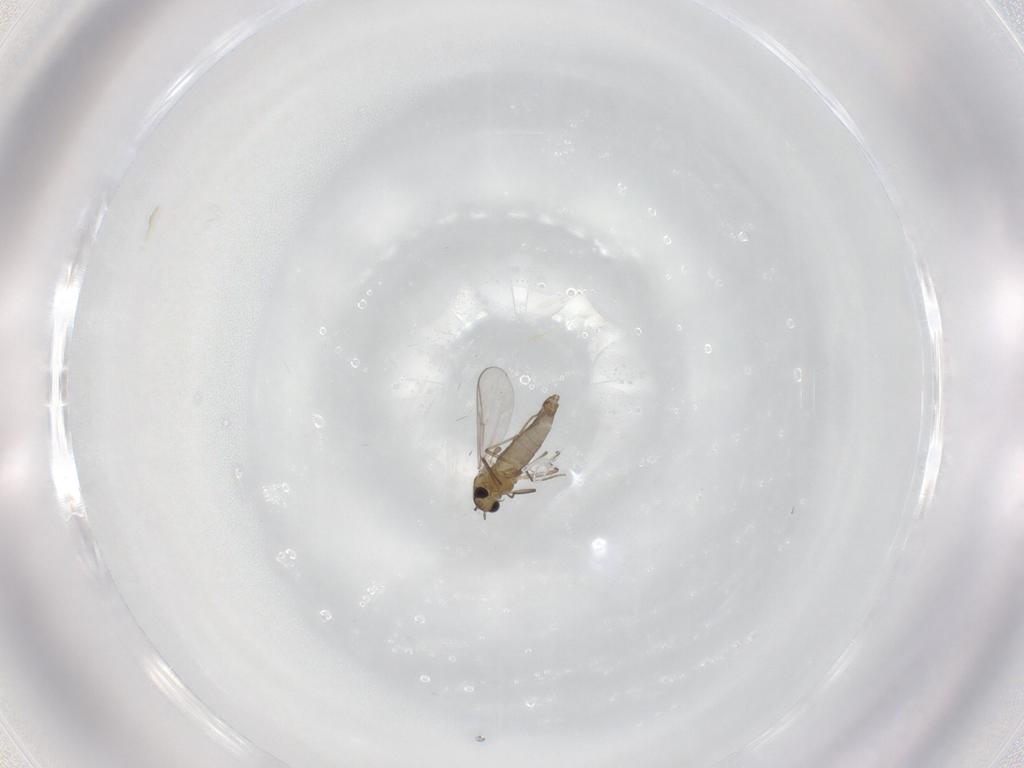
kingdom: Animalia
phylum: Arthropoda
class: Insecta
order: Diptera
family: Chironomidae
